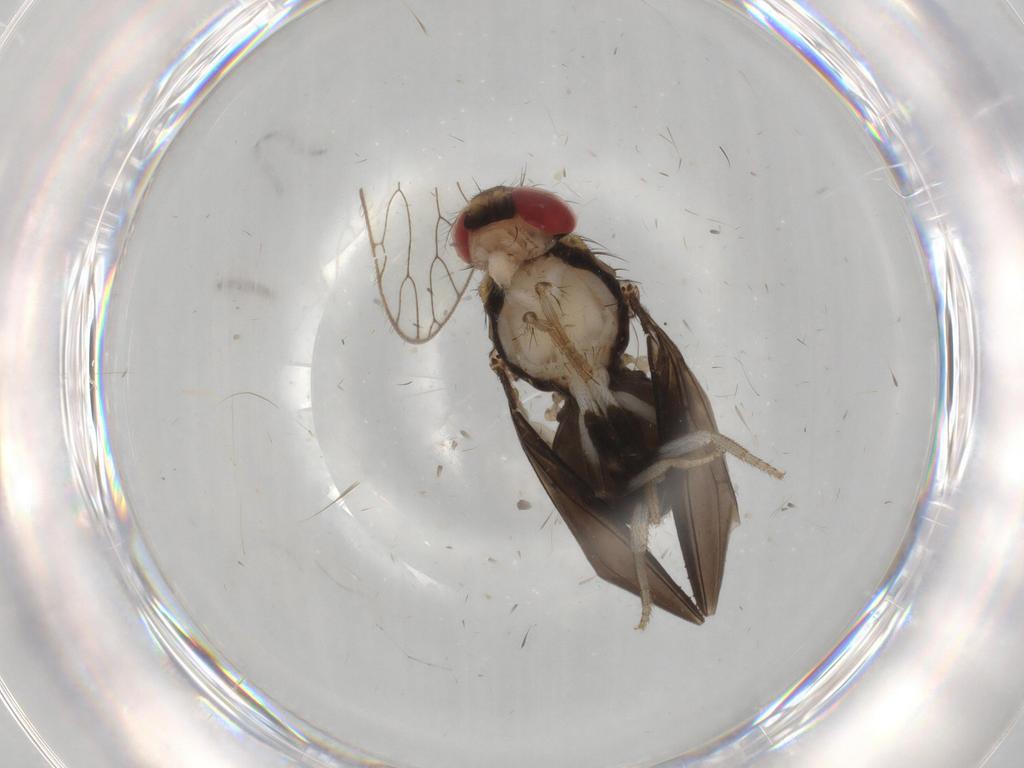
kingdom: Animalia
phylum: Arthropoda
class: Insecta
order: Diptera
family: Drosophilidae
